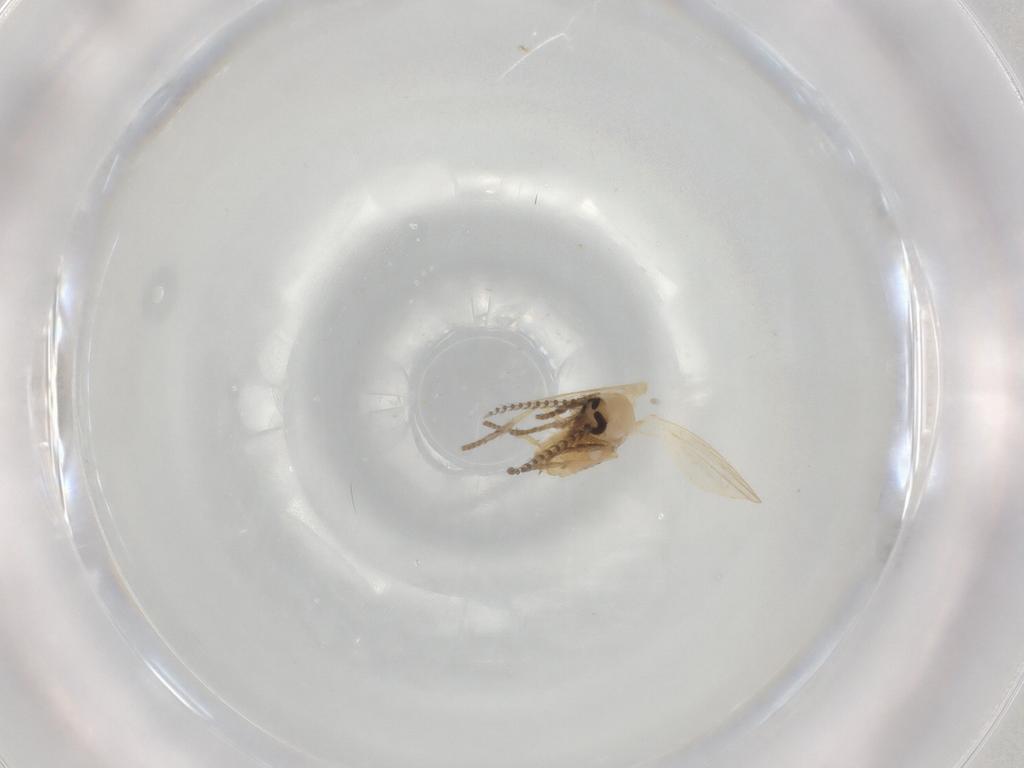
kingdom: Animalia
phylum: Arthropoda
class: Insecta
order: Diptera
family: Psychodidae
